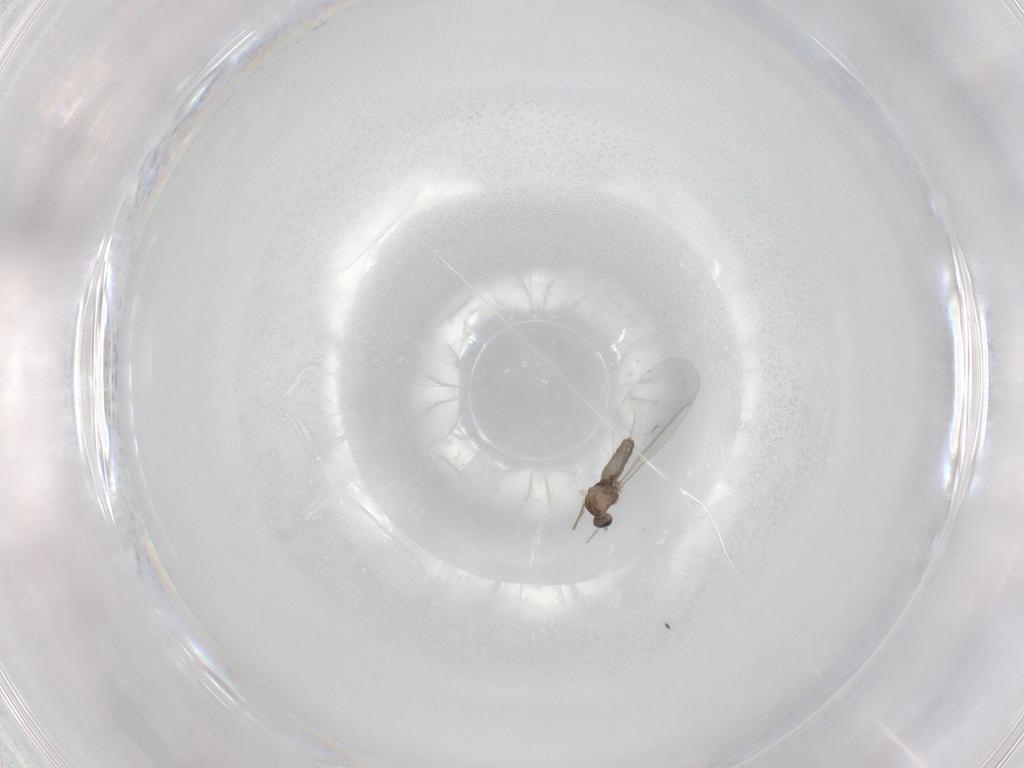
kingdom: Animalia
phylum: Arthropoda
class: Insecta
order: Diptera
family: Cecidomyiidae
